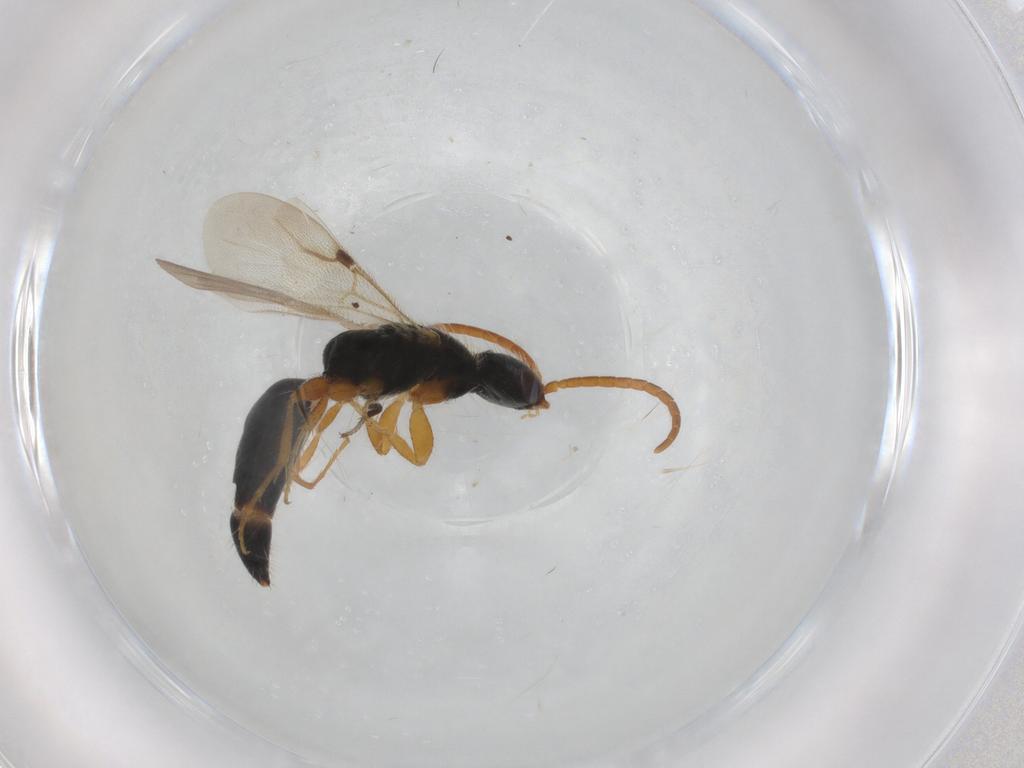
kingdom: Animalia
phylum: Arthropoda
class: Insecta
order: Hymenoptera
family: Bethylidae
